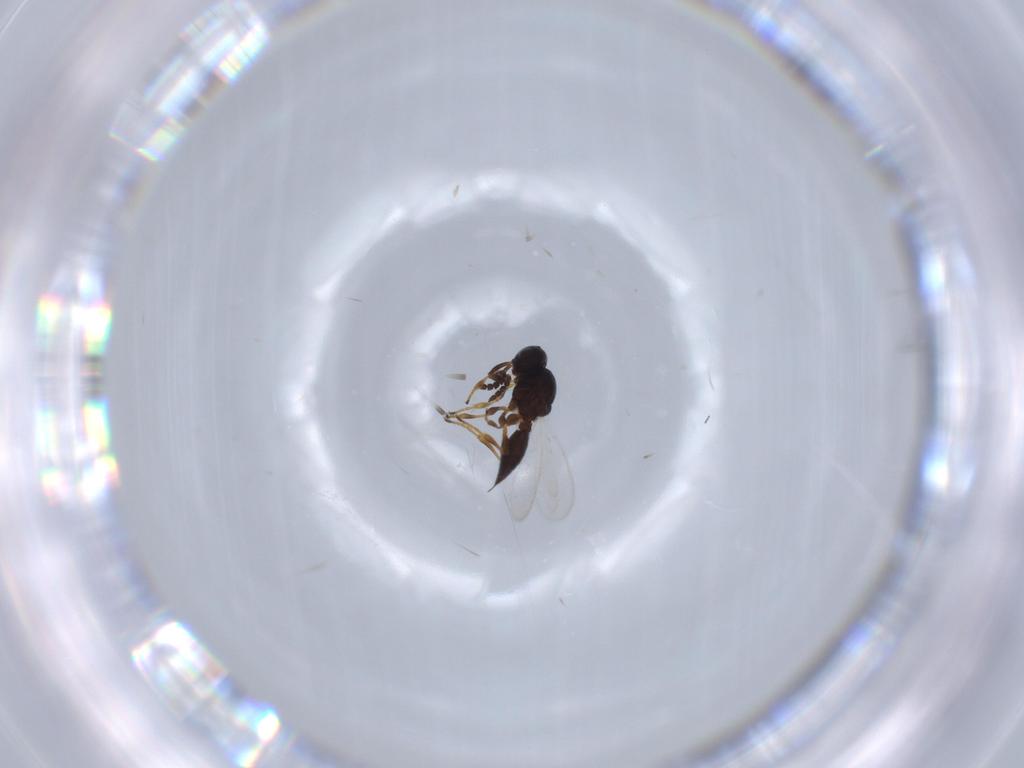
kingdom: Animalia
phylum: Arthropoda
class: Insecta
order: Hymenoptera
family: Platygastridae
